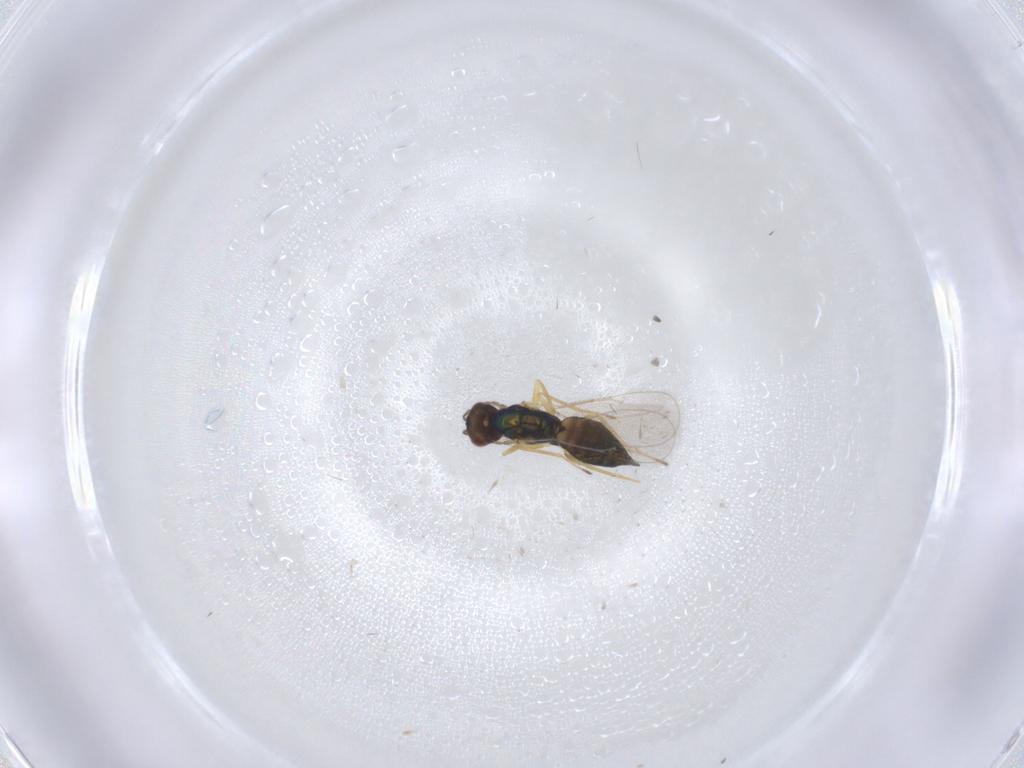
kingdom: Animalia
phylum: Arthropoda
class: Insecta
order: Hymenoptera
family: Eulophidae
